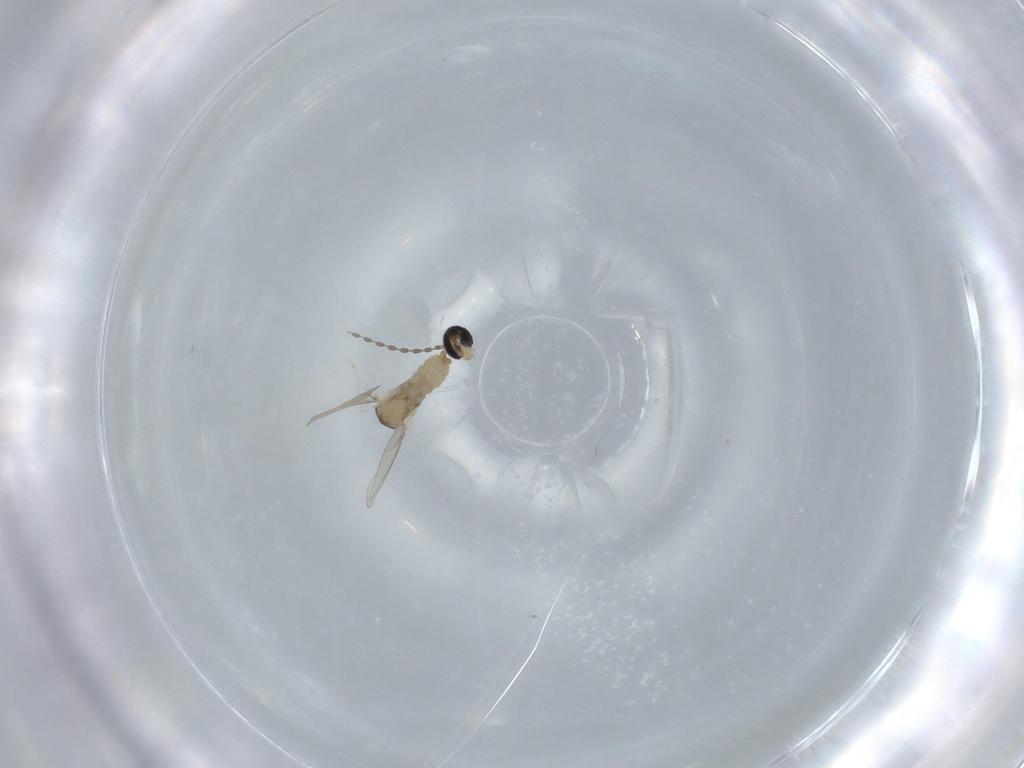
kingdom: Animalia
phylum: Arthropoda
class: Insecta
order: Diptera
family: Cecidomyiidae
